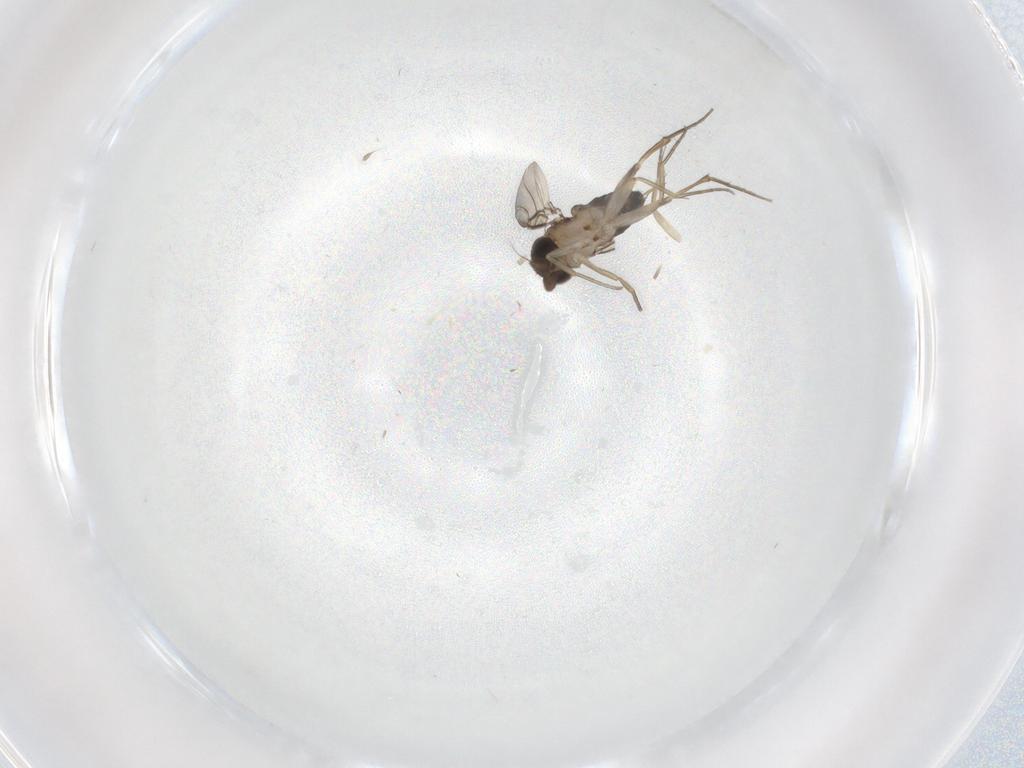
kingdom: Animalia
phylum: Arthropoda
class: Insecta
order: Diptera
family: Phoridae
